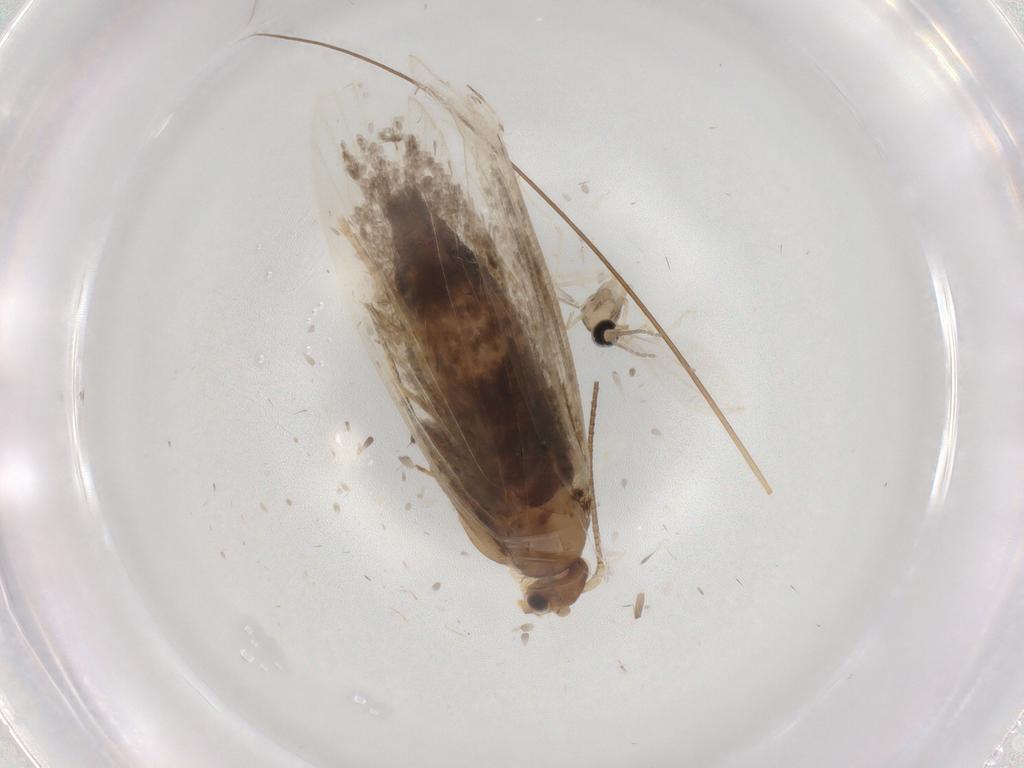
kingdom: Animalia
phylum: Arthropoda
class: Insecta
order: Lepidoptera
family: Tineidae
